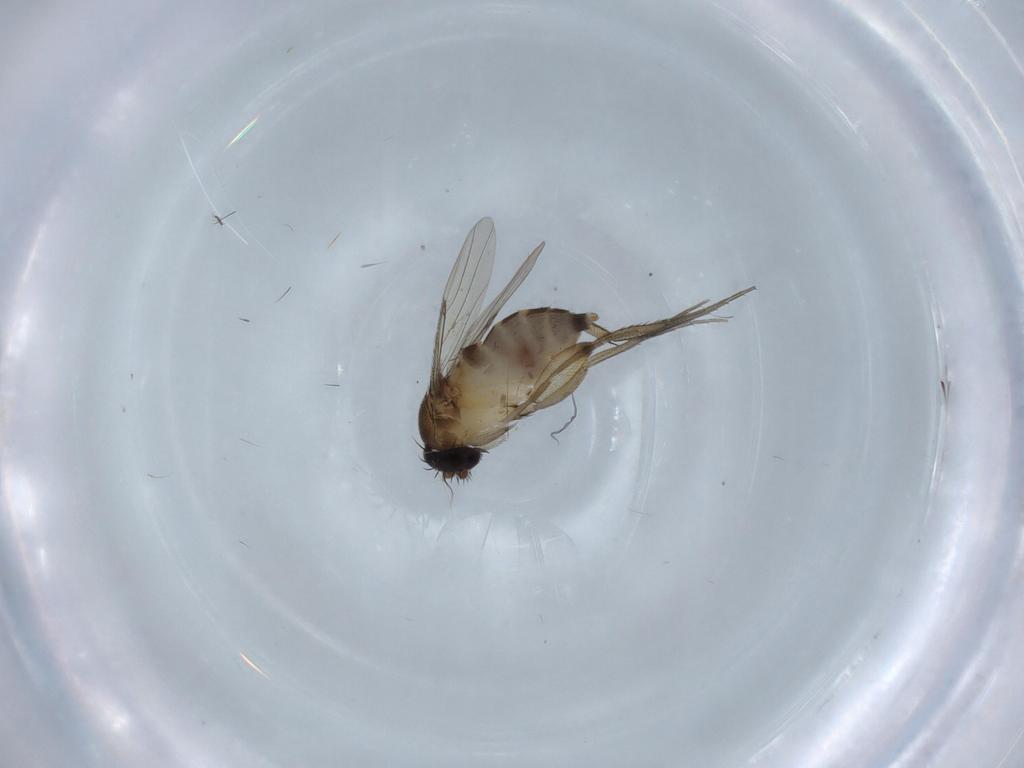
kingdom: Animalia
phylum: Arthropoda
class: Insecta
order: Diptera
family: Phoridae
